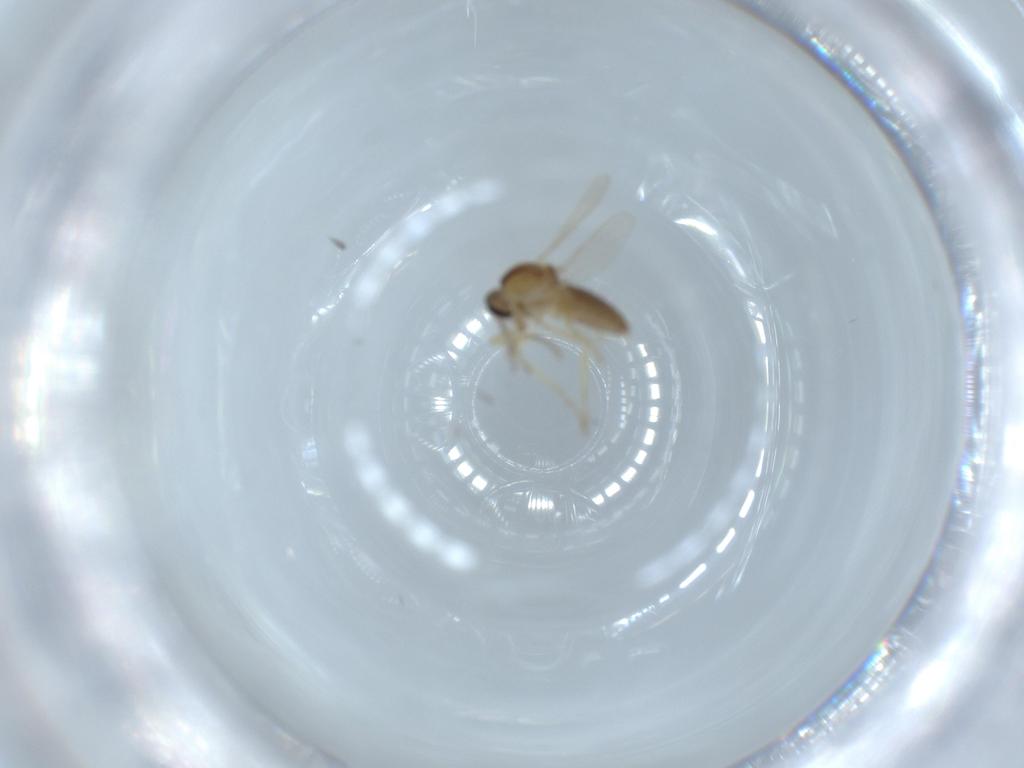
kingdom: Animalia
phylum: Arthropoda
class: Insecta
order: Diptera
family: Ceratopogonidae
